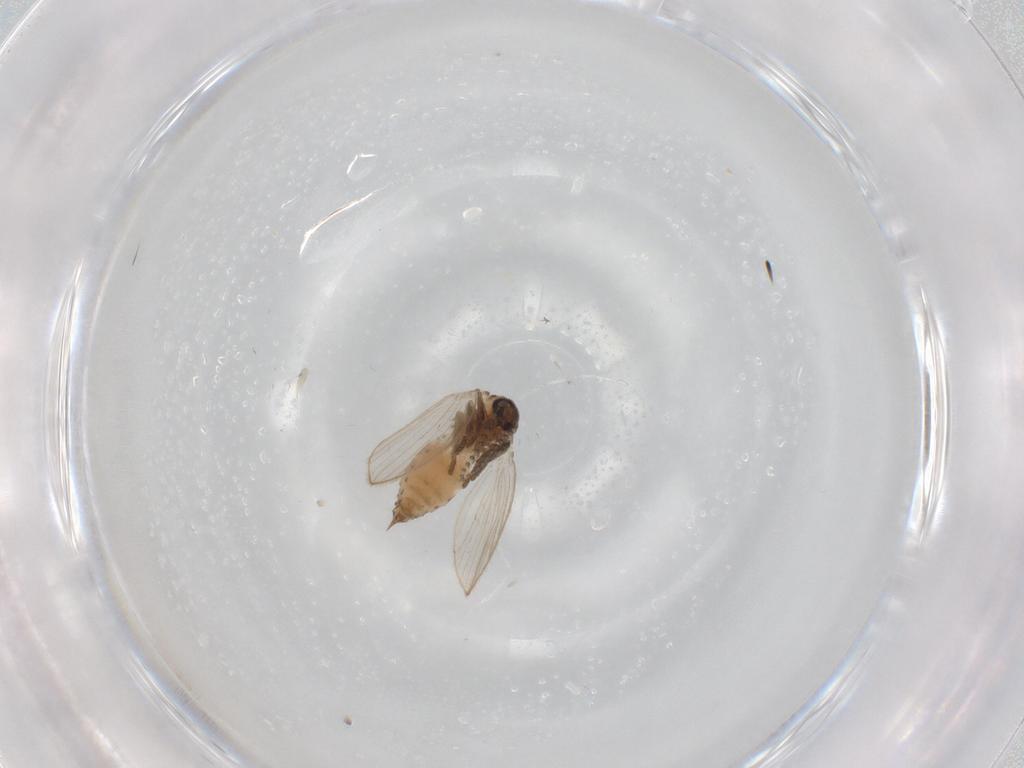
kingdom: Animalia
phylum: Arthropoda
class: Insecta
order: Diptera
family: Psychodidae
